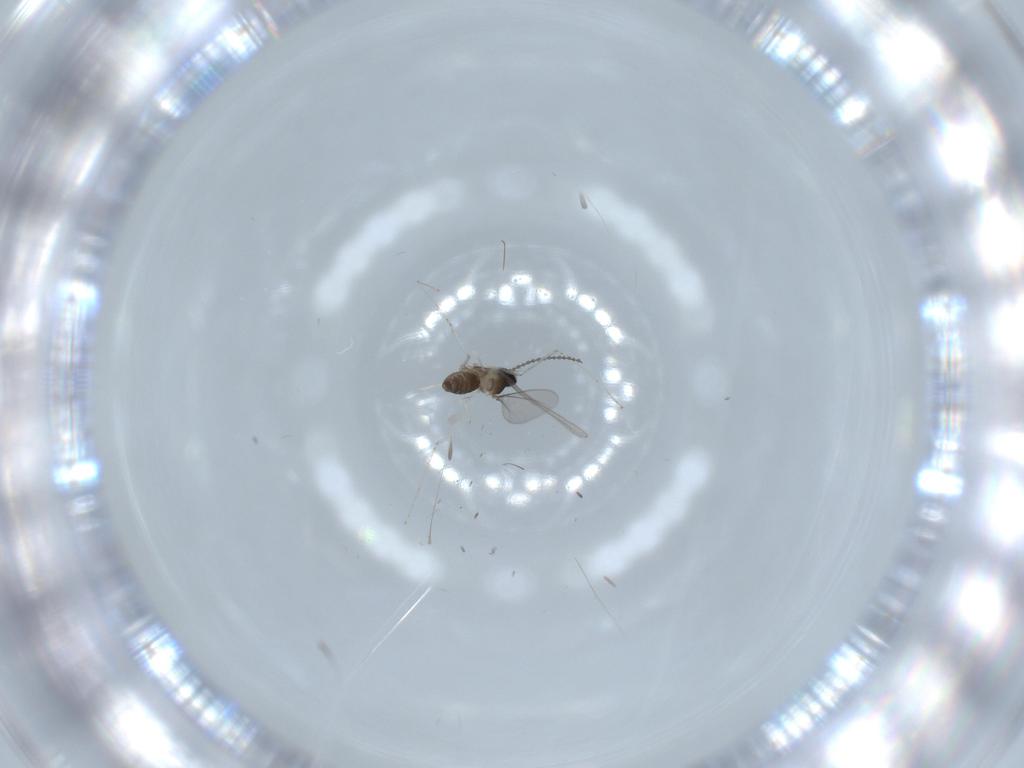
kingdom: Animalia
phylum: Arthropoda
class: Insecta
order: Diptera
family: Cecidomyiidae
